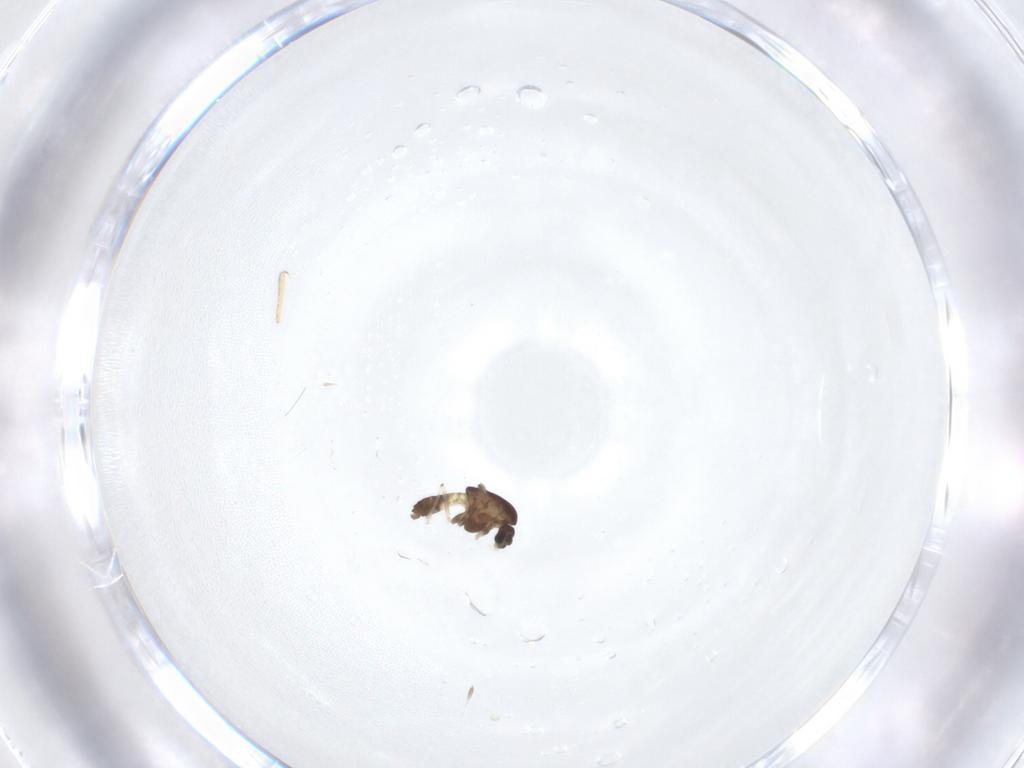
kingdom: Animalia
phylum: Arthropoda
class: Insecta
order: Diptera
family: Chironomidae
